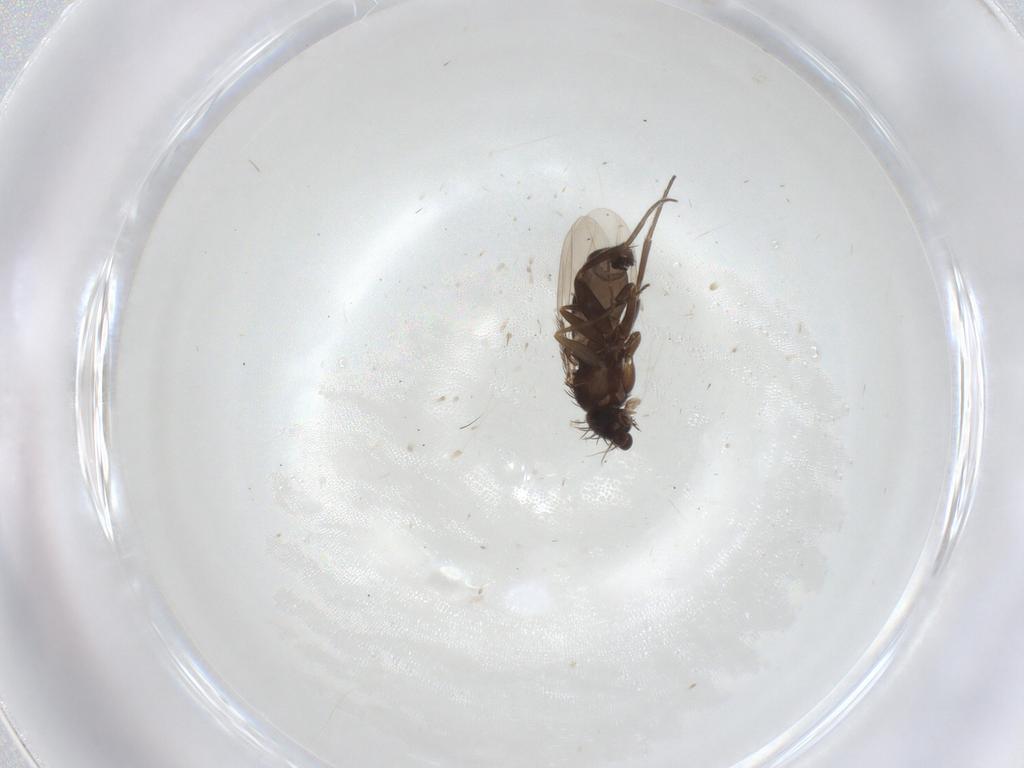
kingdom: Animalia
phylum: Arthropoda
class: Insecta
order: Diptera
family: Phoridae
